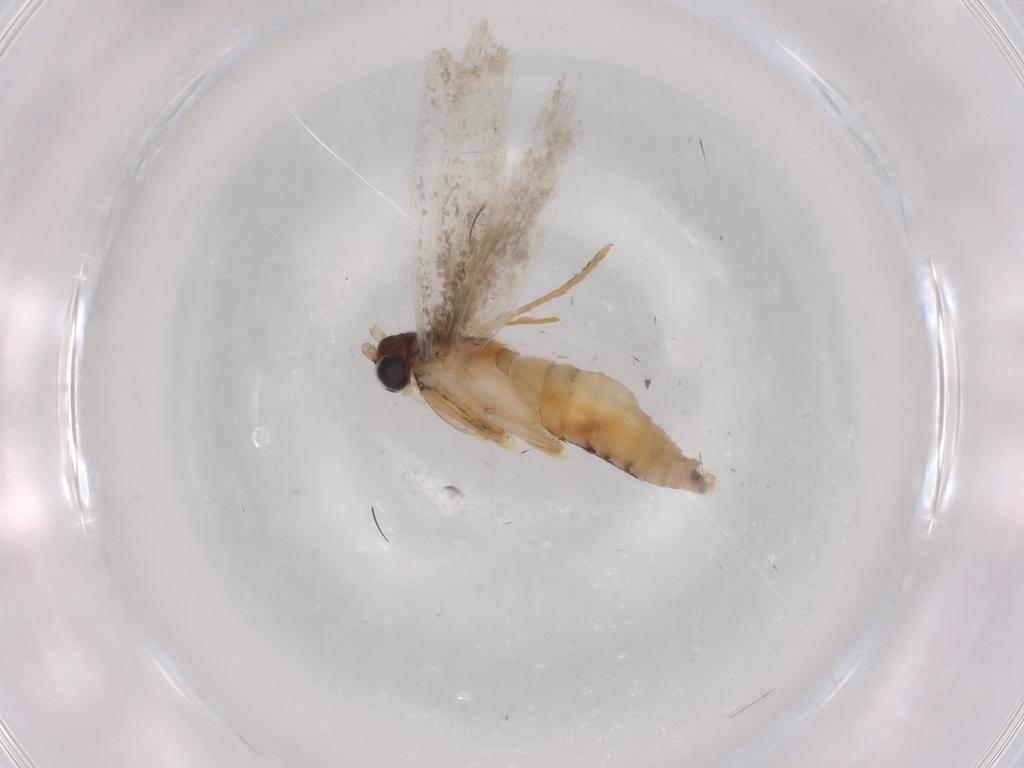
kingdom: Animalia
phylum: Arthropoda
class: Insecta
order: Lepidoptera
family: Tineidae
